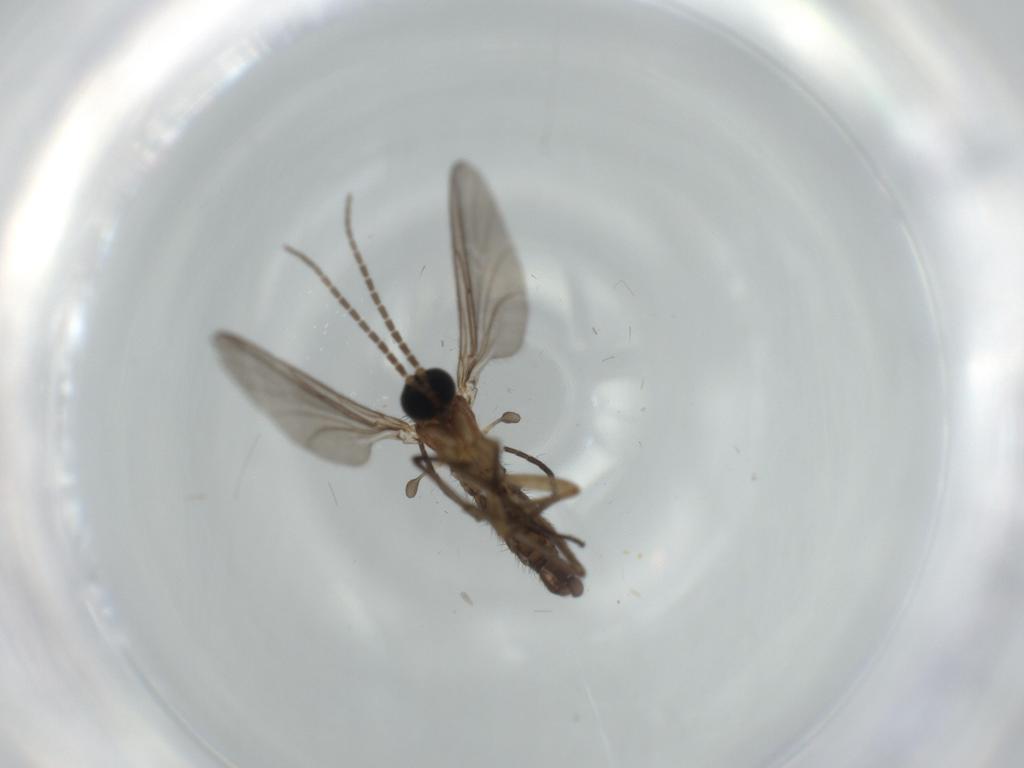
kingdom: Animalia
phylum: Arthropoda
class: Insecta
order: Diptera
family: Sciaridae
